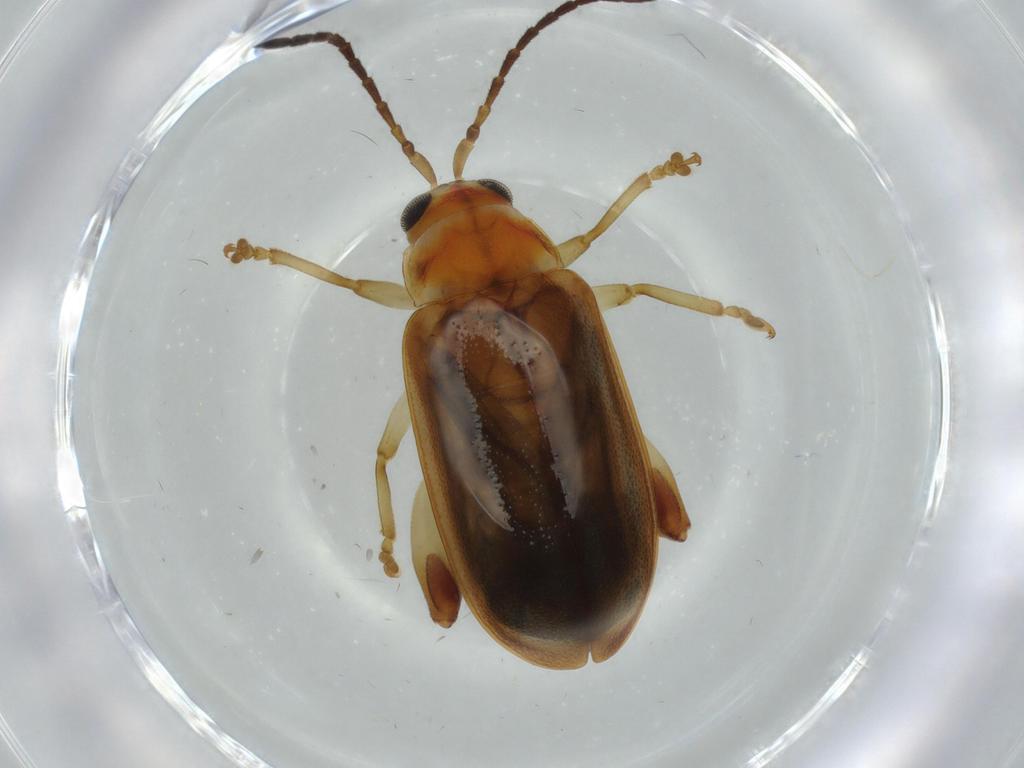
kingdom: Animalia
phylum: Arthropoda
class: Insecta
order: Coleoptera
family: Chrysomelidae
